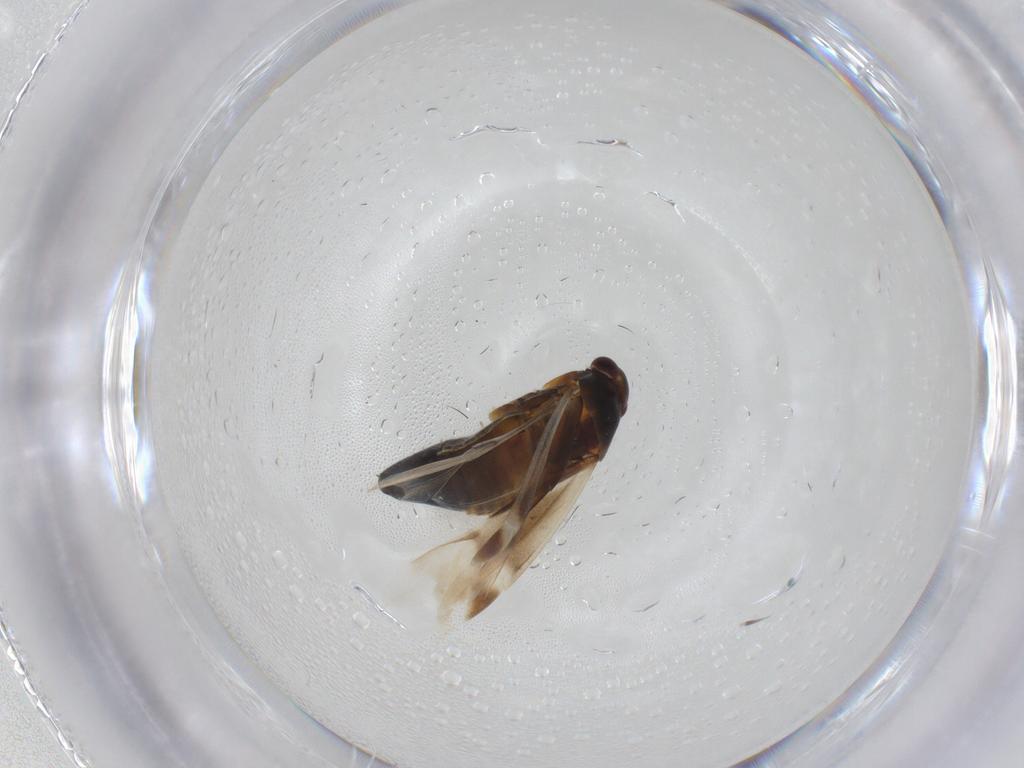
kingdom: Animalia
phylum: Arthropoda
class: Insecta
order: Hemiptera
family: Miridae
